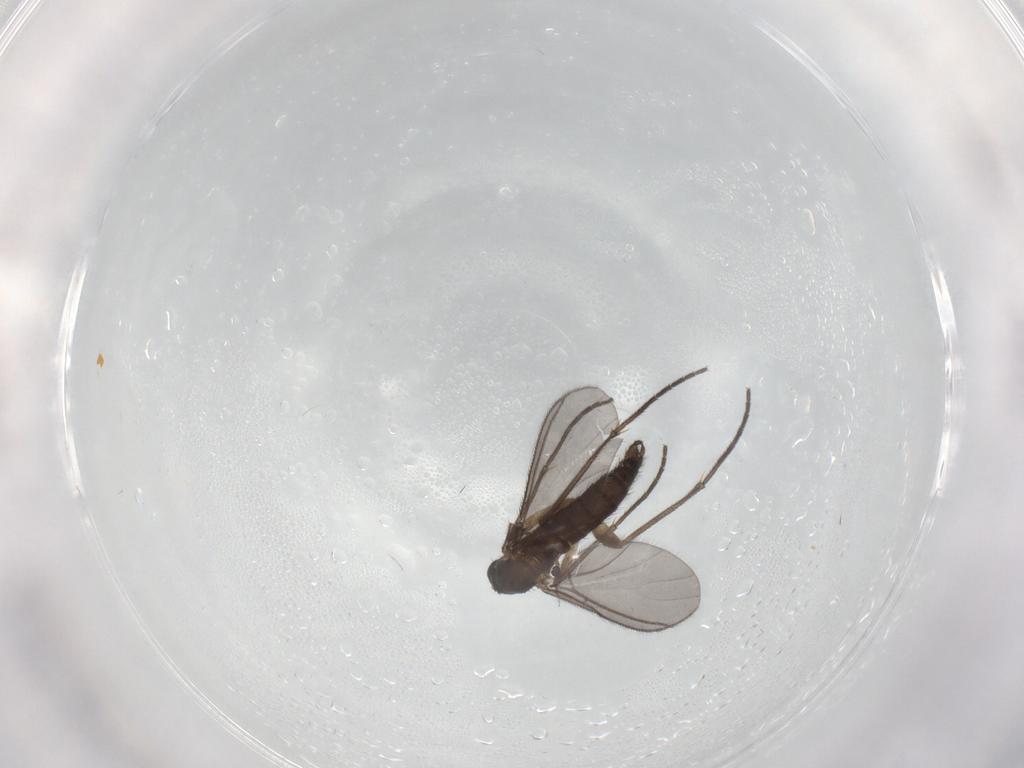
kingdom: Animalia
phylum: Arthropoda
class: Insecta
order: Diptera
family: Sciaridae
